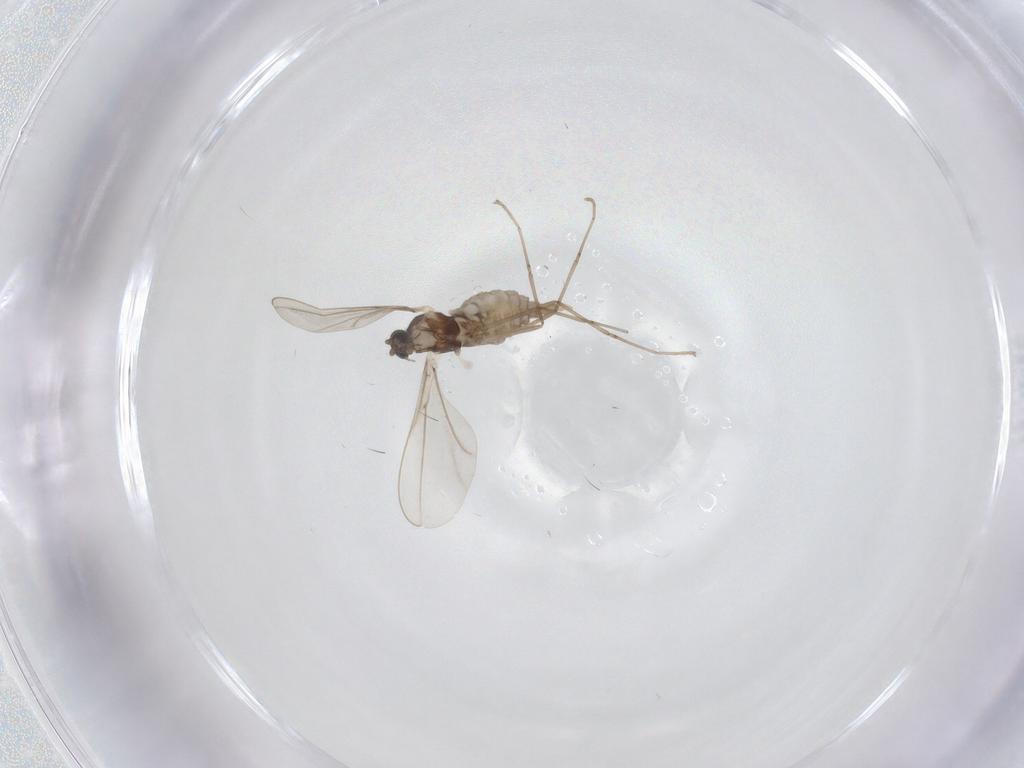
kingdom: Animalia
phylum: Arthropoda
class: Insecta
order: Diptera
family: Cecidomyiidae
